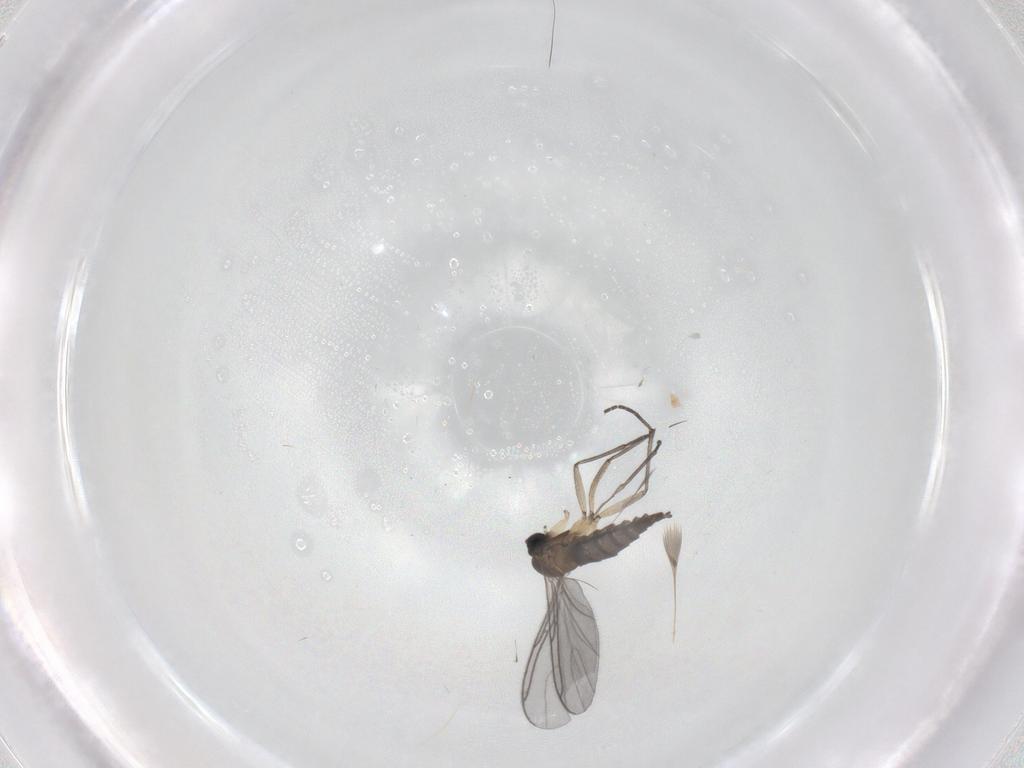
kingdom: Animalia
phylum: Arthropoda
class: Insecta
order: Diptera
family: Sciaridae
